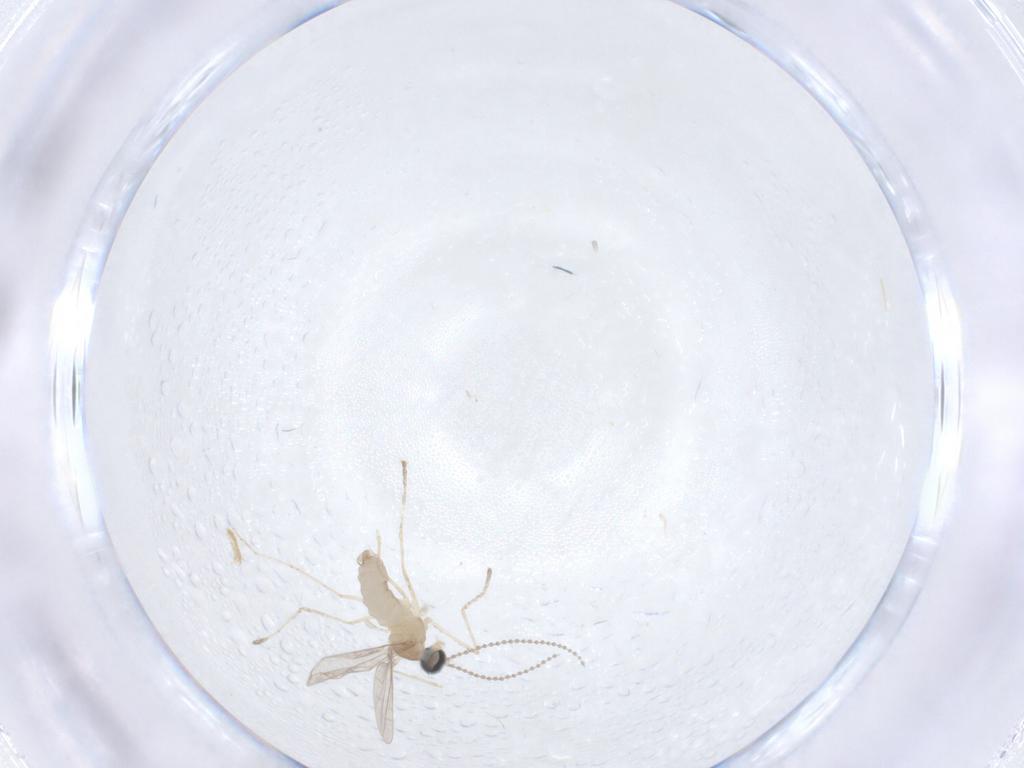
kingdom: Animalia
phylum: Arthropoda
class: Insecta
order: Diptera
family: Cecidomyiidae
